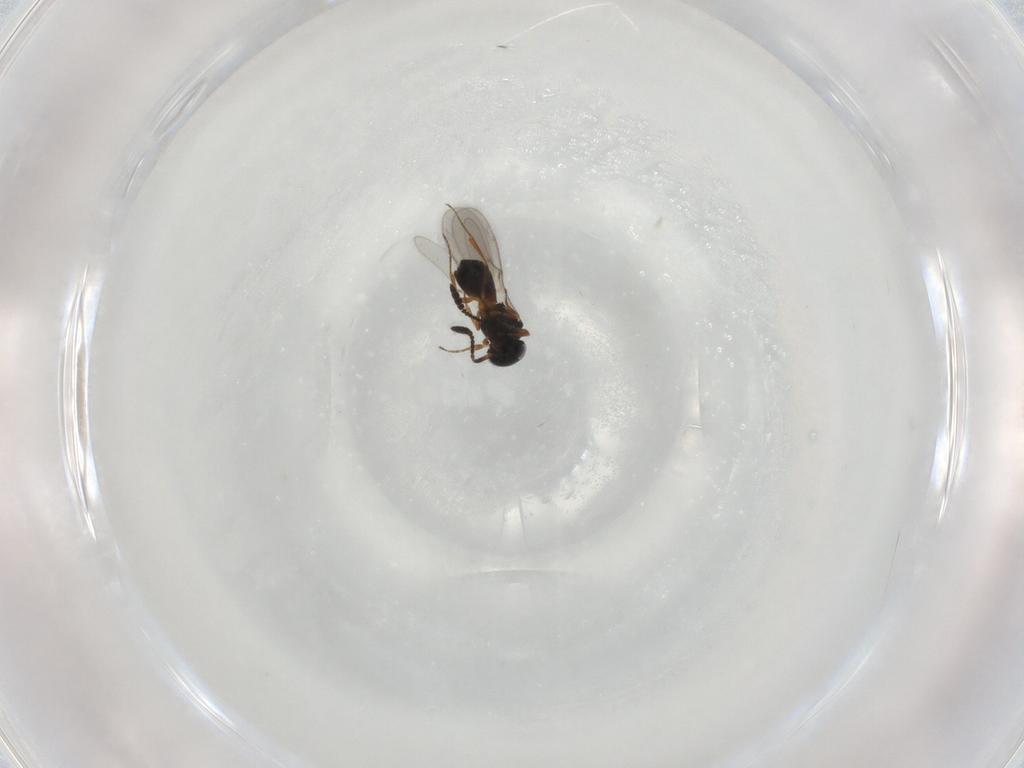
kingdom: Animalia
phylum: Arthropoda
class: Insecta
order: Hymenoptera
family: Scelionidae
